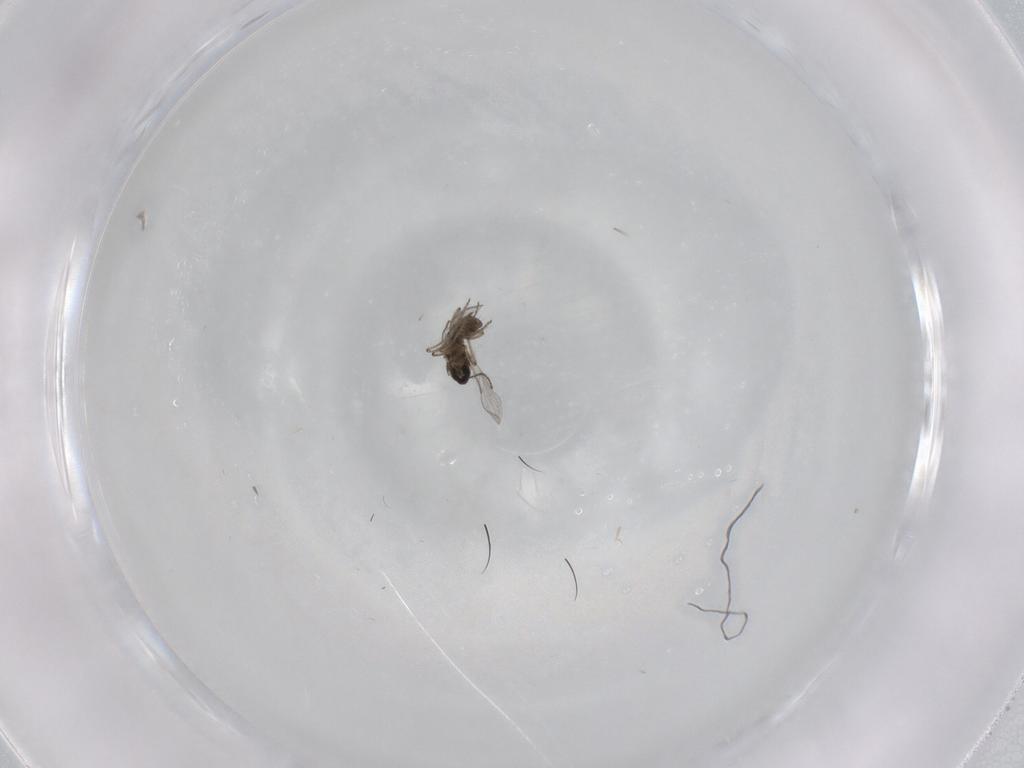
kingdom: Animalia
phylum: Arthropoda
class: Insecta
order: Diptera
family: Ceratopogonidae
